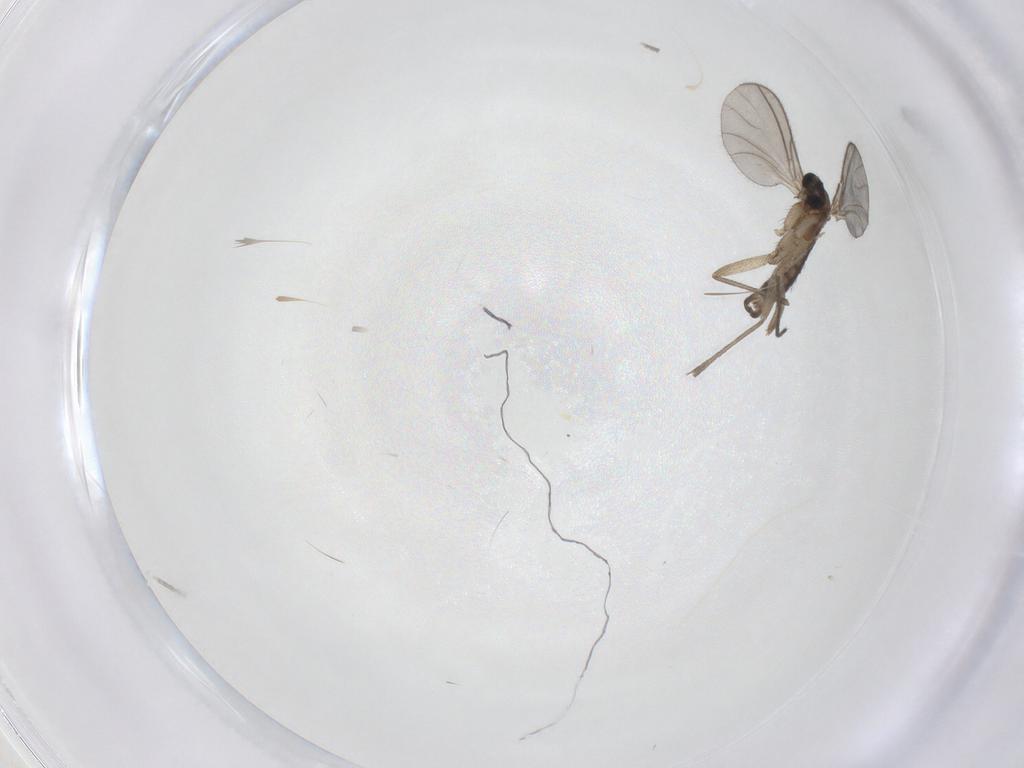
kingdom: Animalia
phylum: Arthropoda
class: Insecta
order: Diptera
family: Sciaridae
